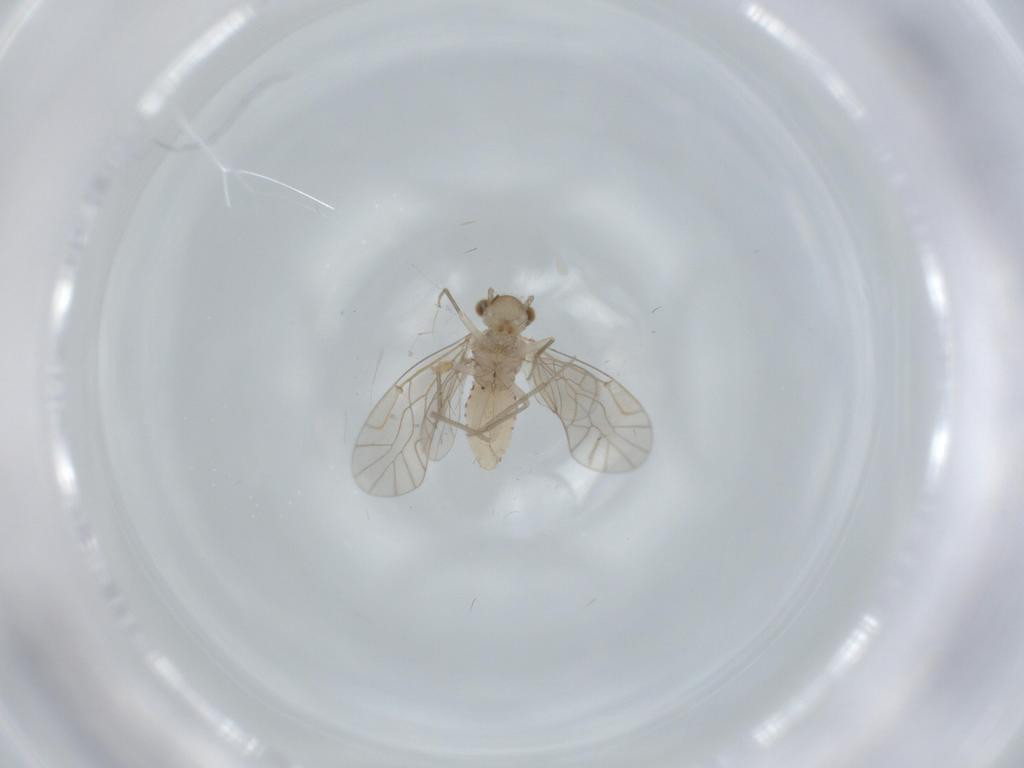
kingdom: Animalia
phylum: Arthropoda
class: Insecta
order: Psocodea
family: Lachesillidae
